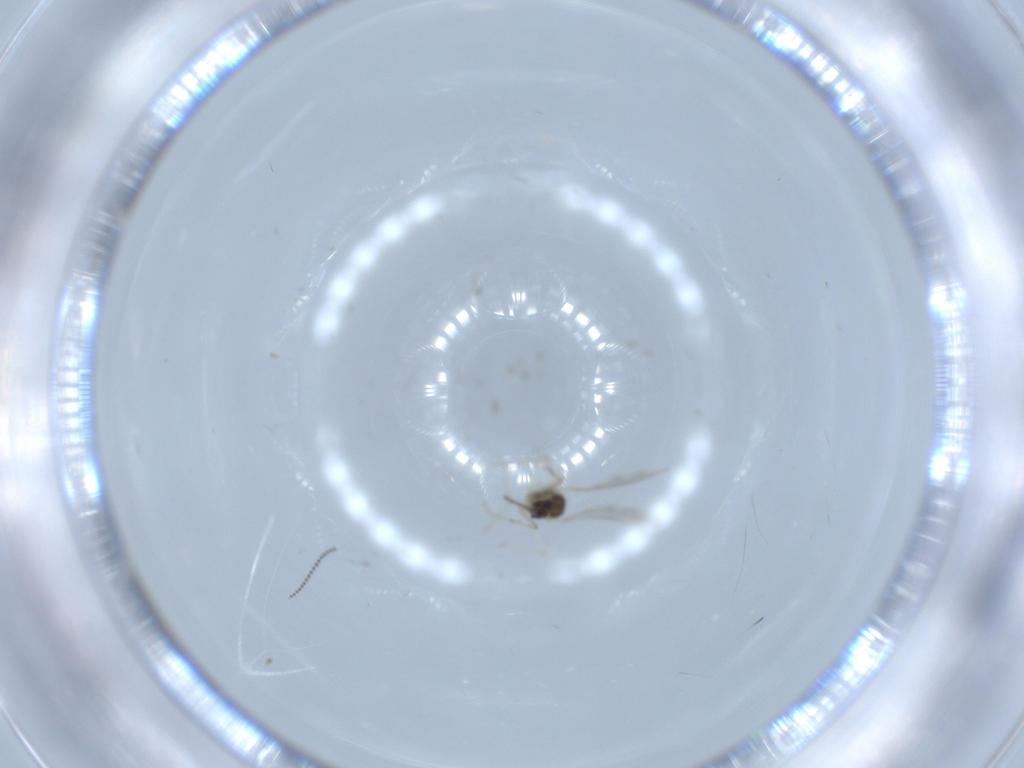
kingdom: Animalia
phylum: Arthropoda
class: Insecta
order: Diptera
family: Cecidomyiidae
